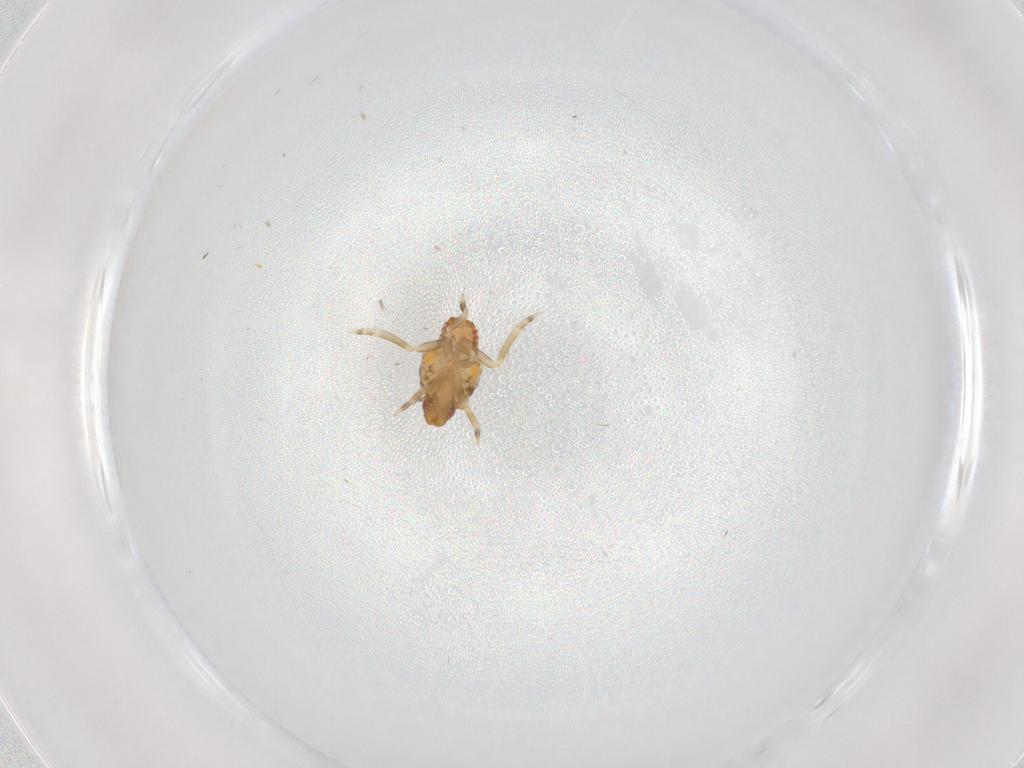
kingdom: Animalia
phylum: Arthropoda
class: Insecta
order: Hemiptera
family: Flatidae
